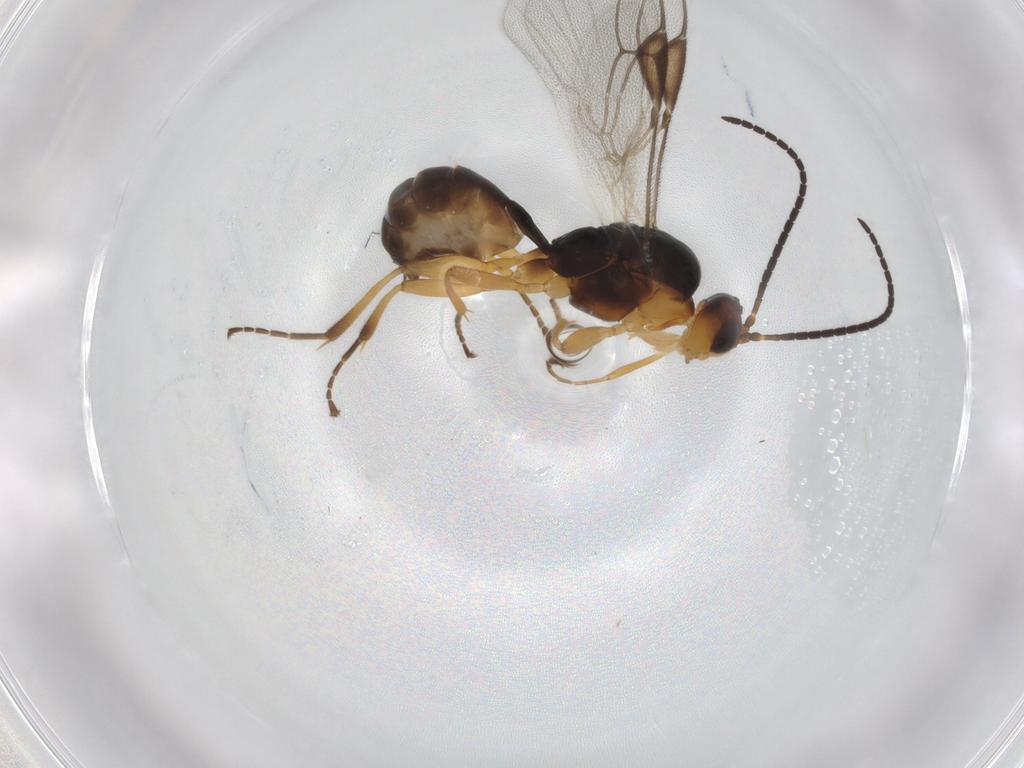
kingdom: Animalia
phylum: Arthropoda
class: Insecta
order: Hymenoptera
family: Braconidae
